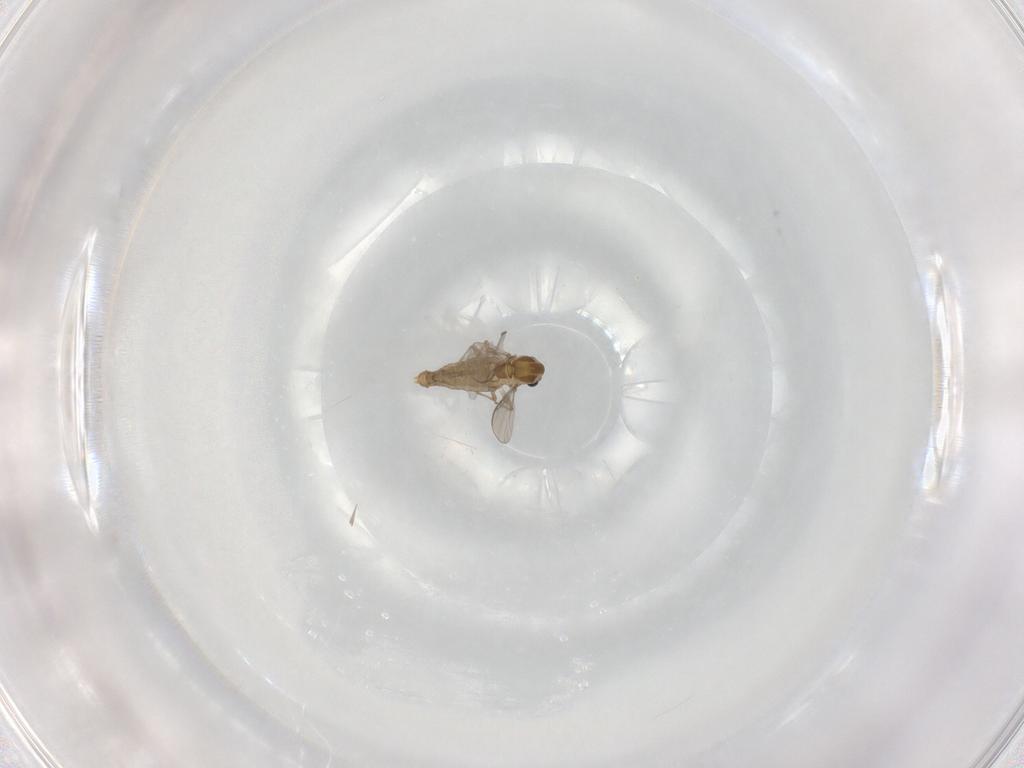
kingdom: Animalia
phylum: Arthropoda
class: Insecta
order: Diptera
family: Chironomidae
